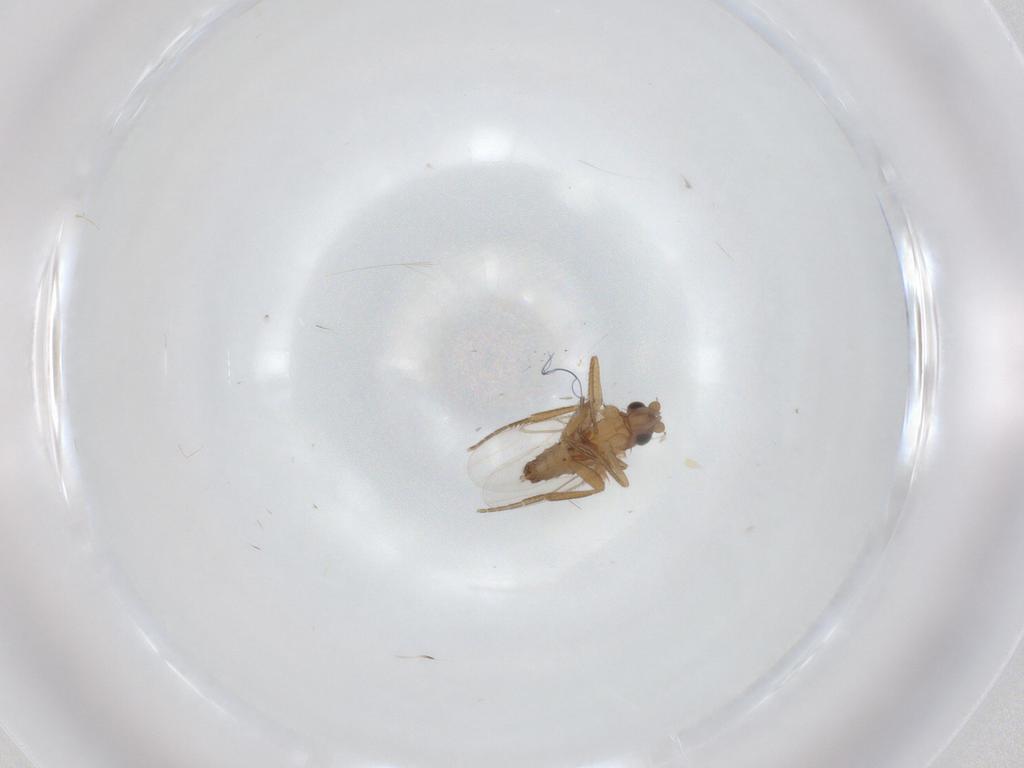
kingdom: Animalia
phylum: Arthropoda
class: Insecta
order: Diptera
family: Phoridae
